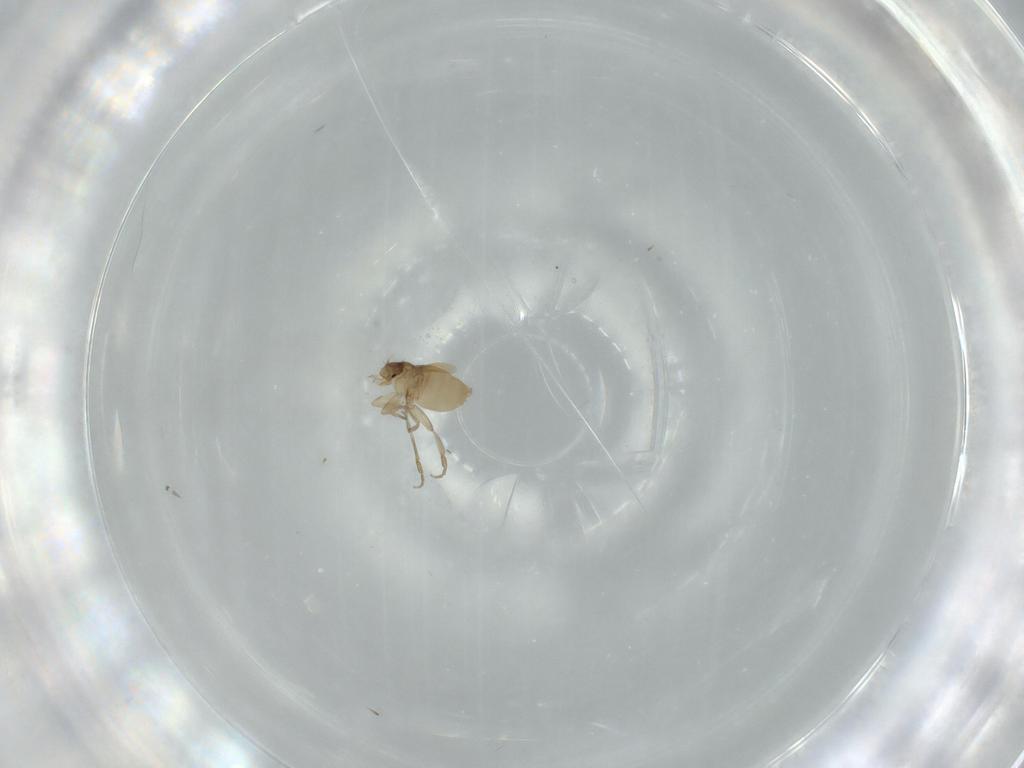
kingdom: Animalia
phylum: Arthropoda
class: Insecta
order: Diptera
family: Phoridae
